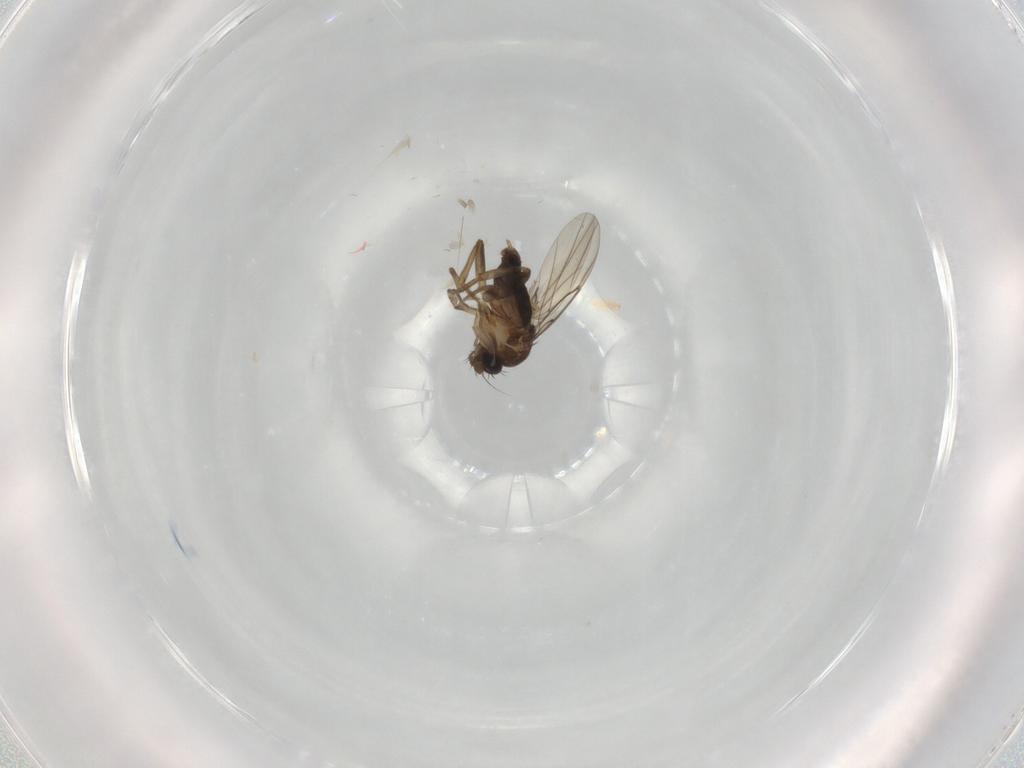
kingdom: Animalia
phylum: Arthropoda
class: Insecta
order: Diptera
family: Phoridae
